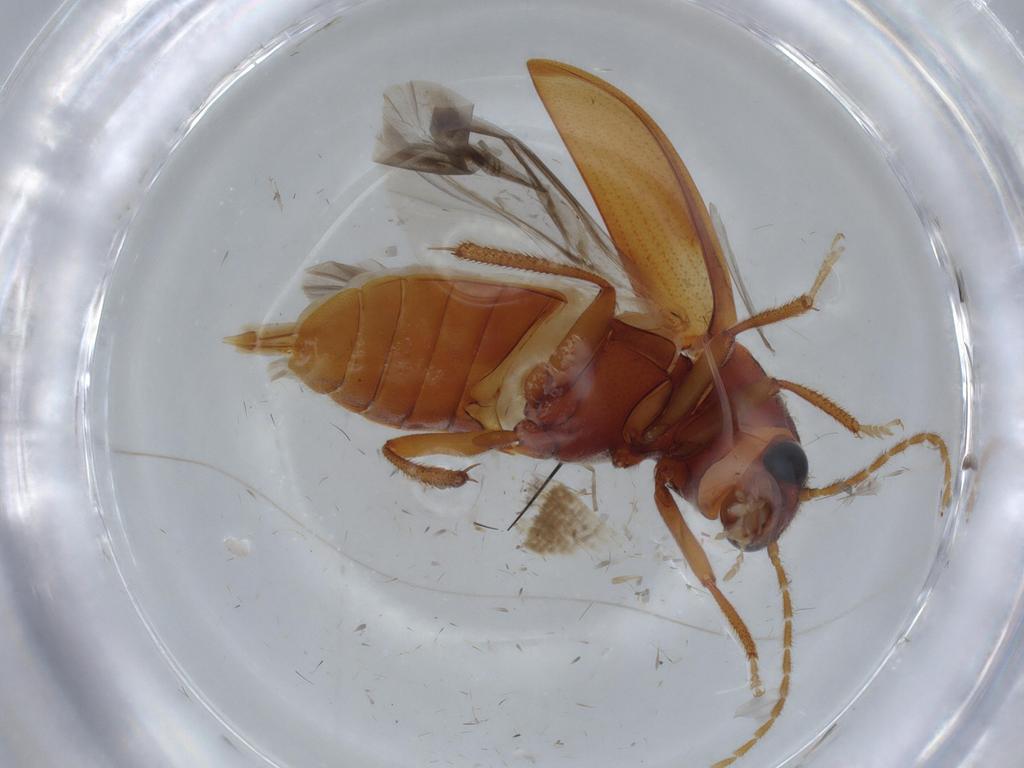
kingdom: Animalia
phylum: Arthropoda
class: Insecta
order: Coleoptera
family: Ptilodactylidae
